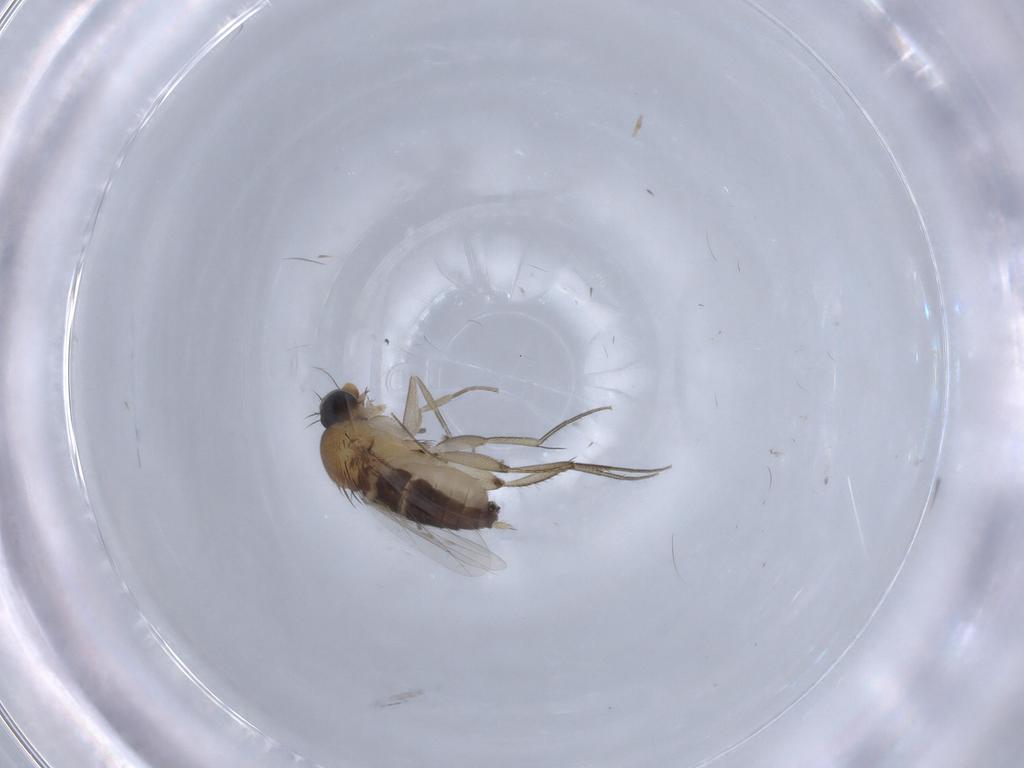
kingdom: Animalia
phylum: Arthropoda
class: Insecta
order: Diptera
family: Phoridae
